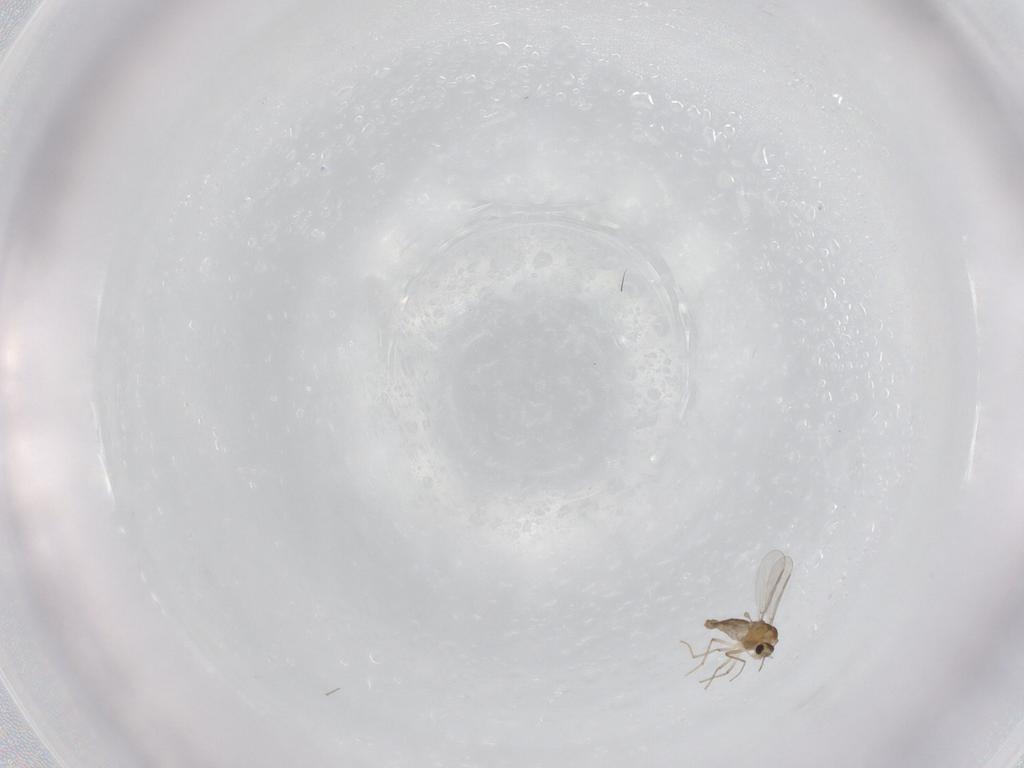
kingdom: Animalia
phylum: Arthropoda
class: Insecta
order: Diptera
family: Chironomidae
